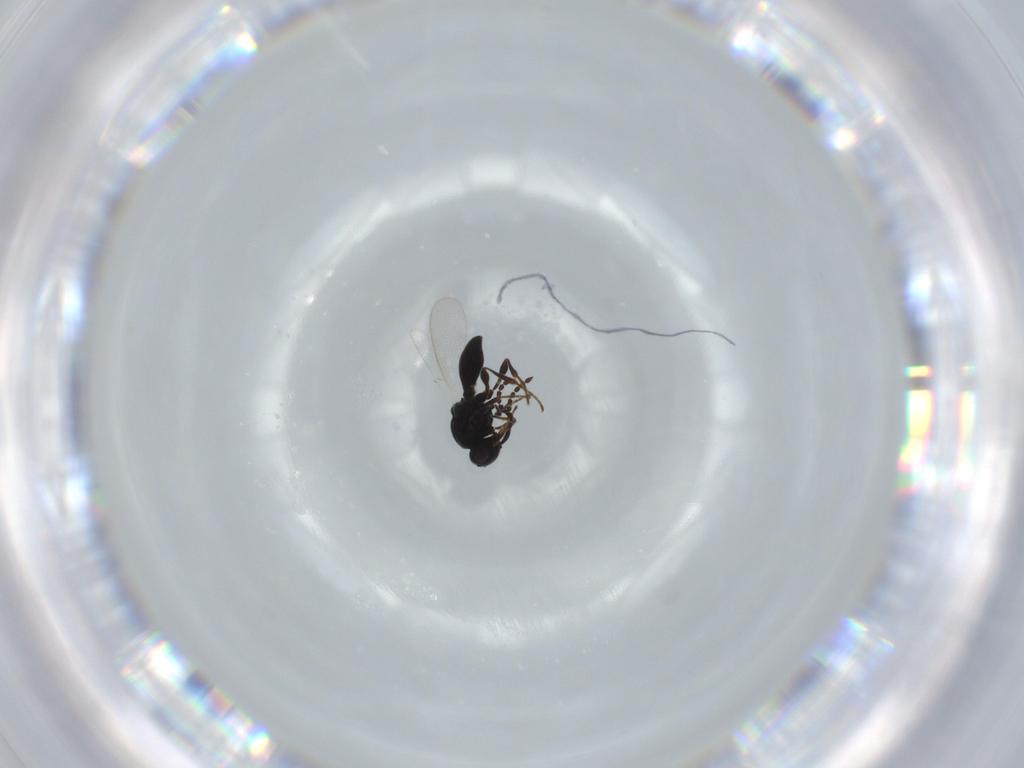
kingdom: Animalia
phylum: Arthropoda
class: Insecta
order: Hymenoptera
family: Platygastridae
